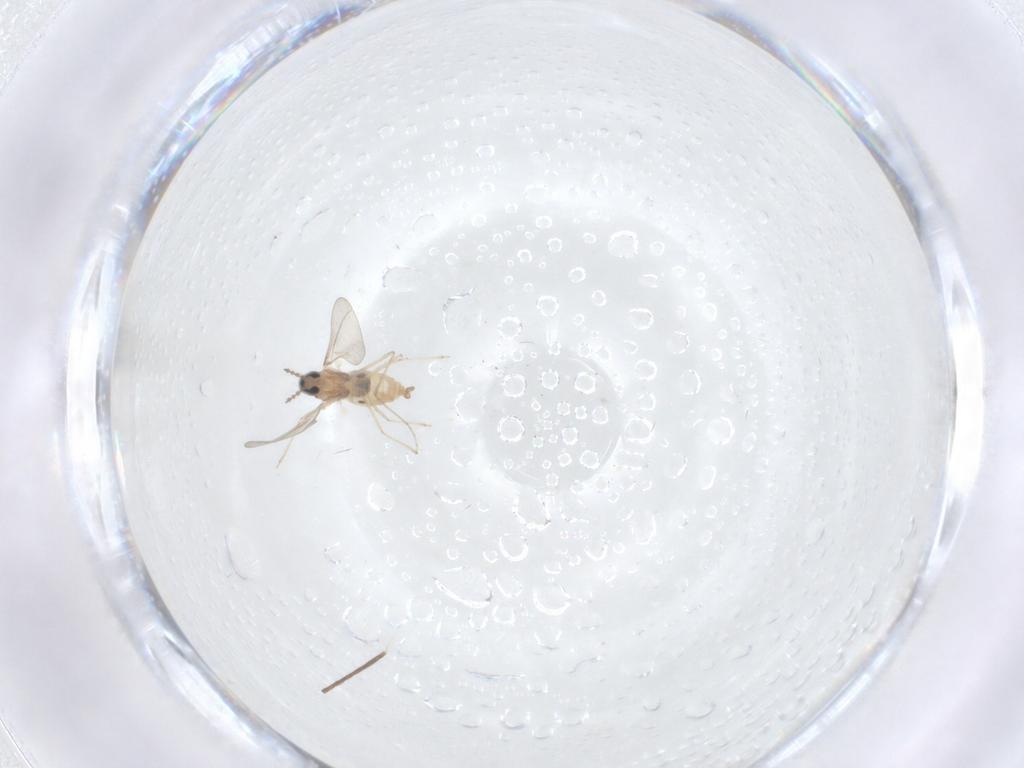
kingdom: Animalia
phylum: Arthropoda
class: Insecta
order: Diptera
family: Cecidomyiidae
